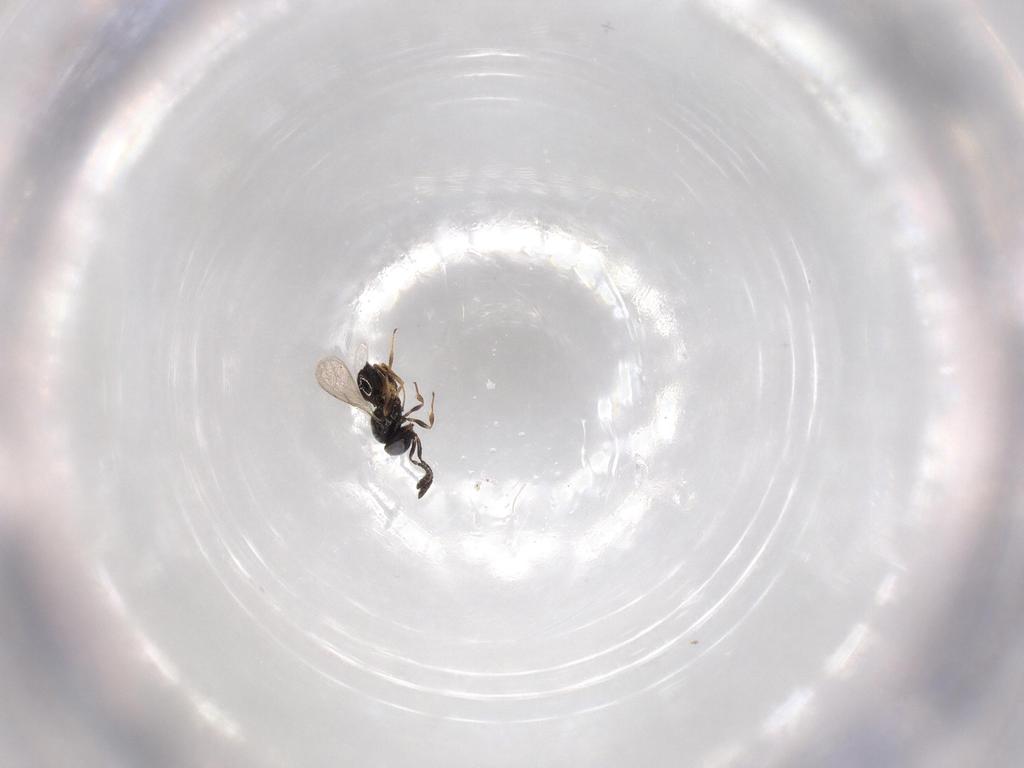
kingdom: Animalia
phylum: Arthropoda
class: Insecta
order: Hymenoptera
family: Scelionidae
